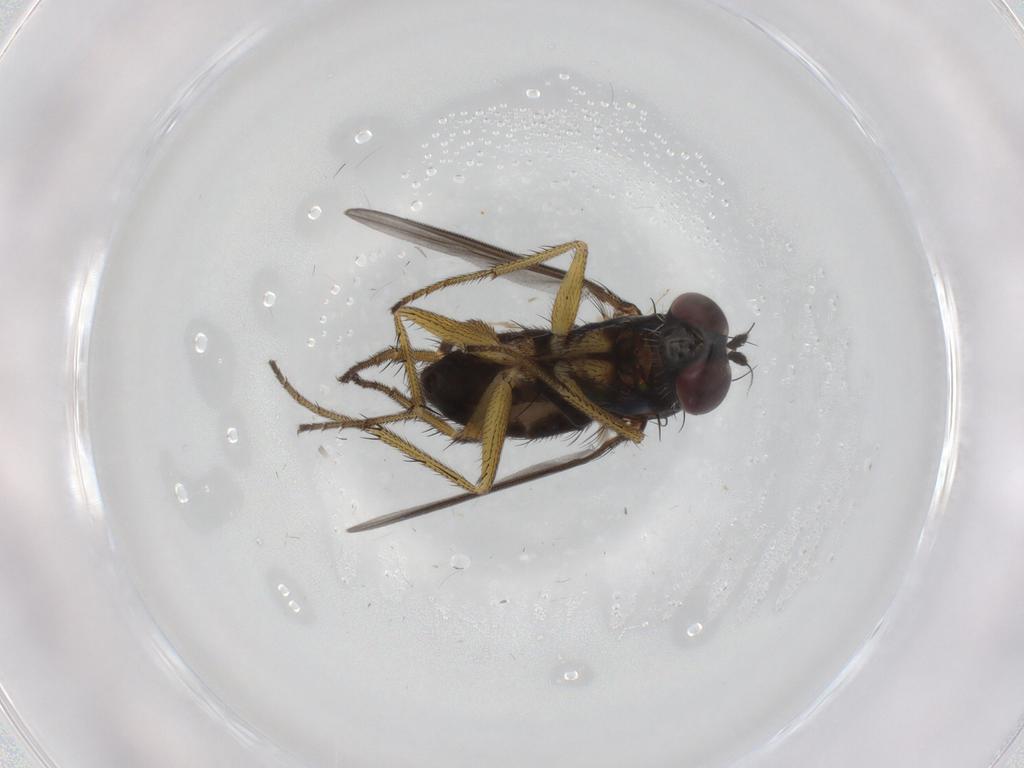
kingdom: Animalia
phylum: Arthropoda
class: Insecta
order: Diptera
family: Dolichopodidae
